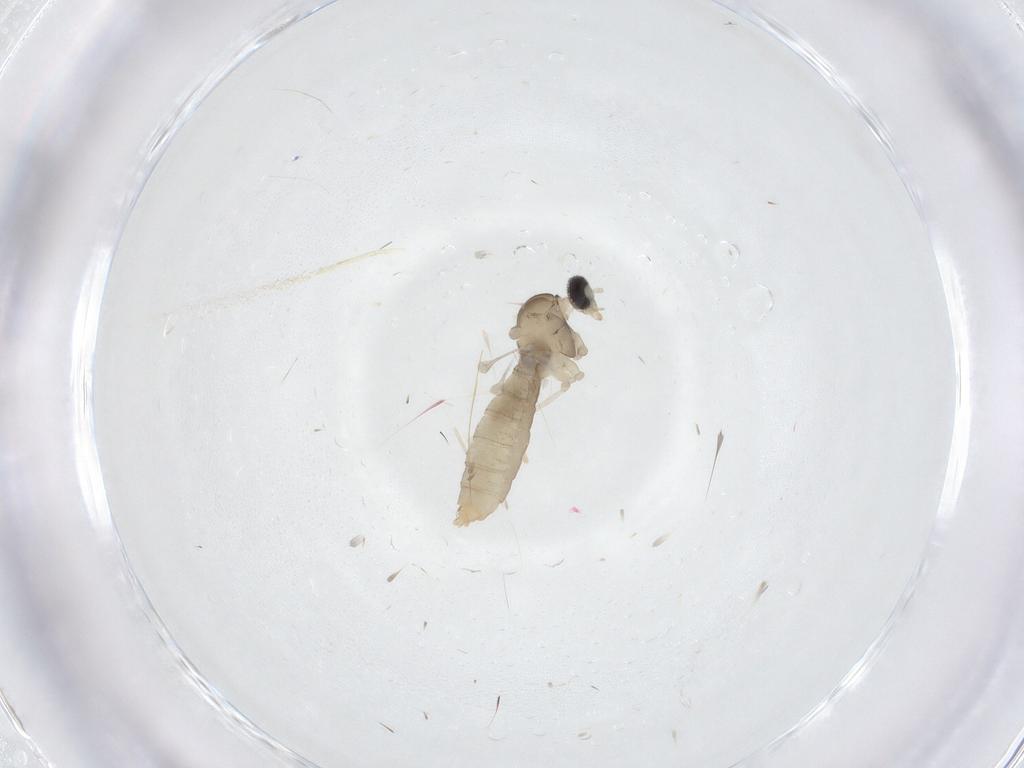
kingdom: Animalia
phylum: Arthropoda
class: Insecta
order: Diptera
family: Cecidomyiidae
